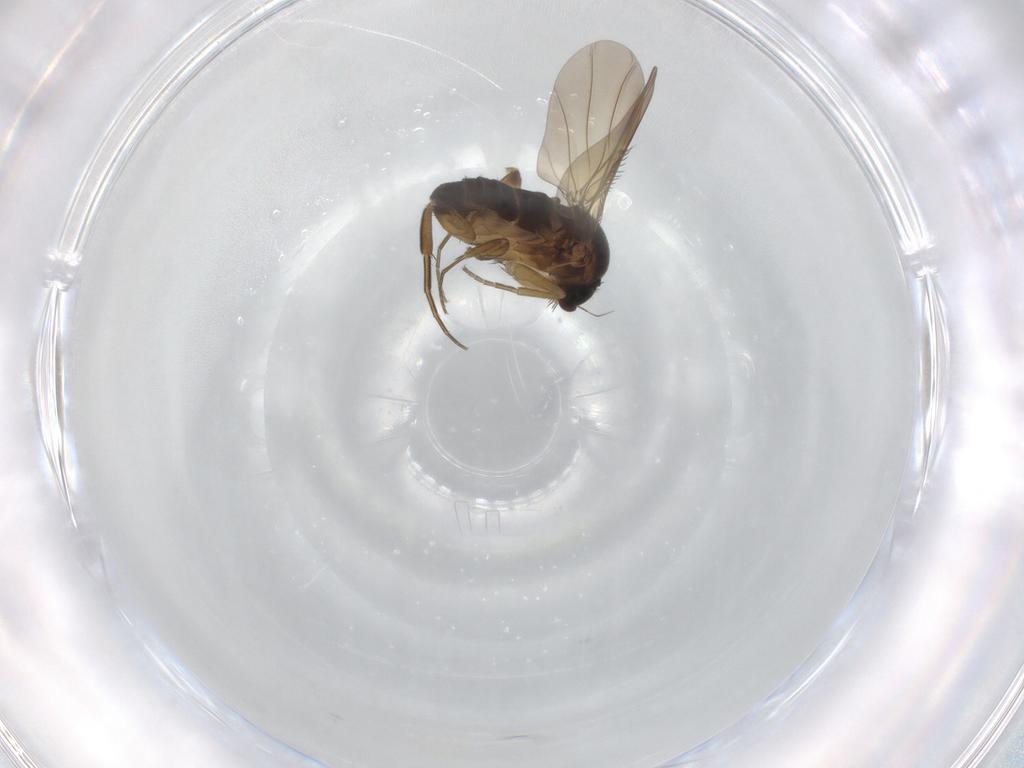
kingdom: Animalia
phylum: Arthropoda
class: Insecta
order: Diptera
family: Phoridae
